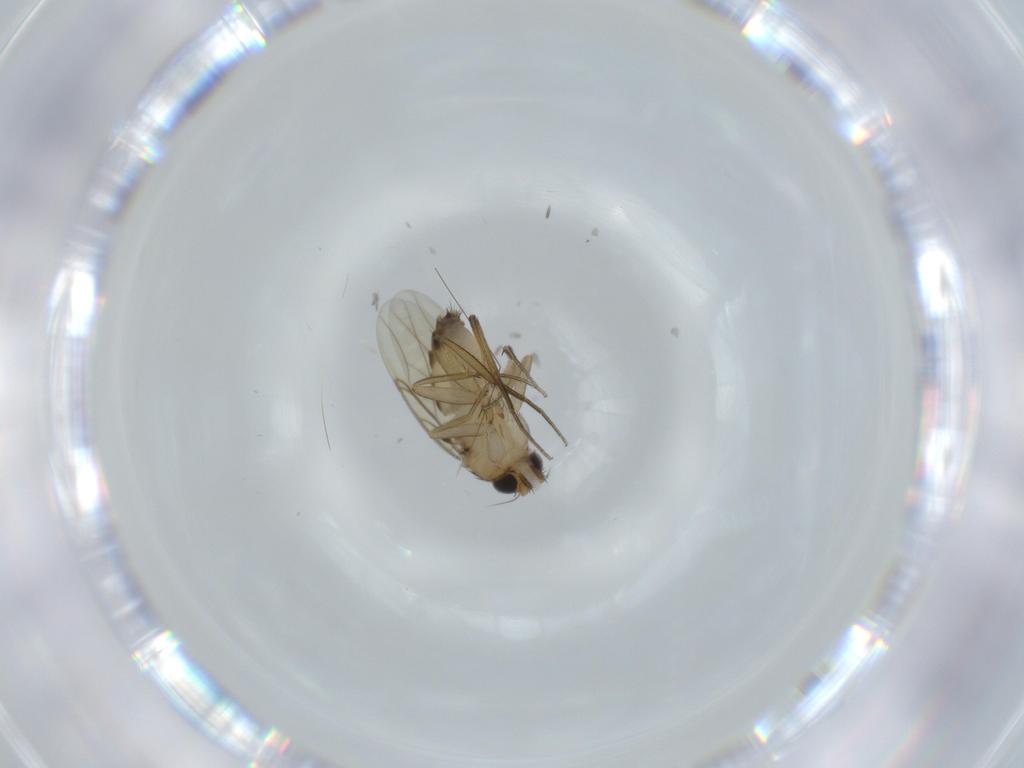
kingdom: Animalia
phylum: Arthropoda
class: Insecta
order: Diptera
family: Phoridae
